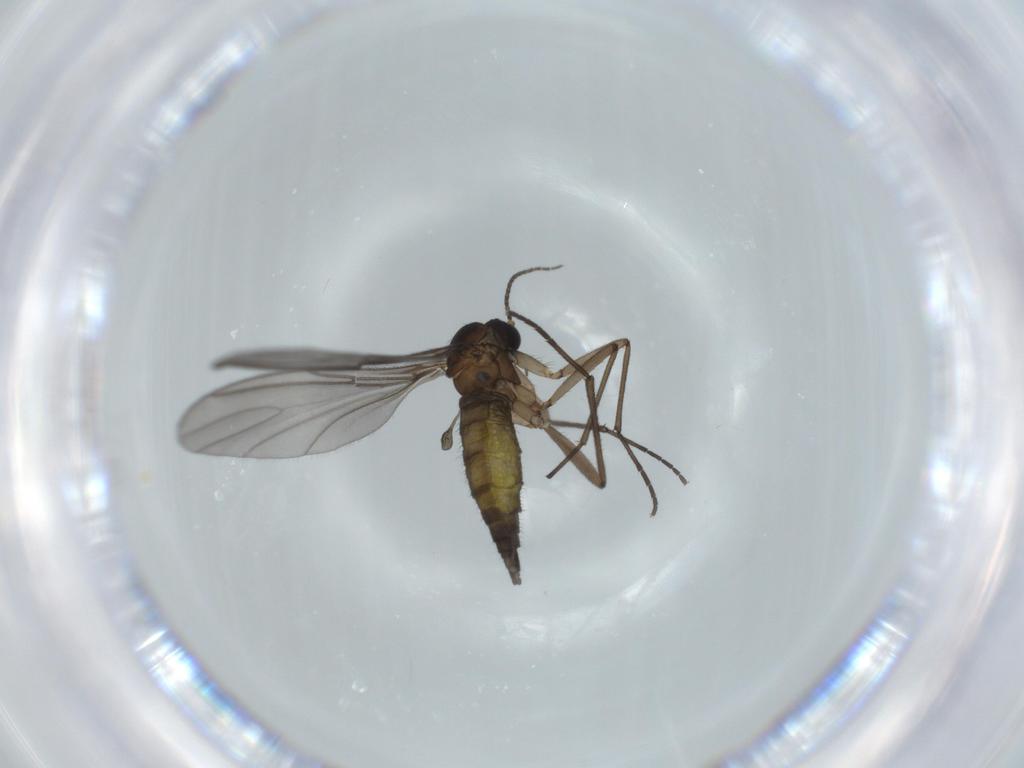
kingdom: Animalia
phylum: Arthropoda
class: Insecta
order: Diptera
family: Sciaridae
